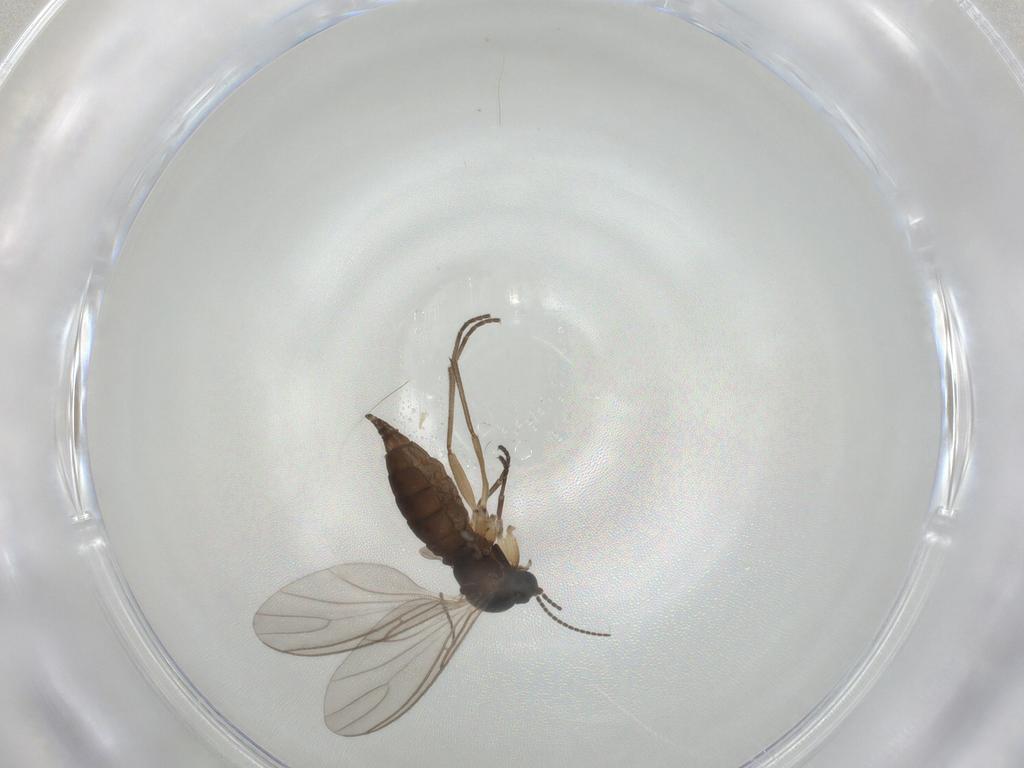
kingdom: Animalia
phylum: Arthropoda
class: Insecta
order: Diptera
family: Sciaridae
